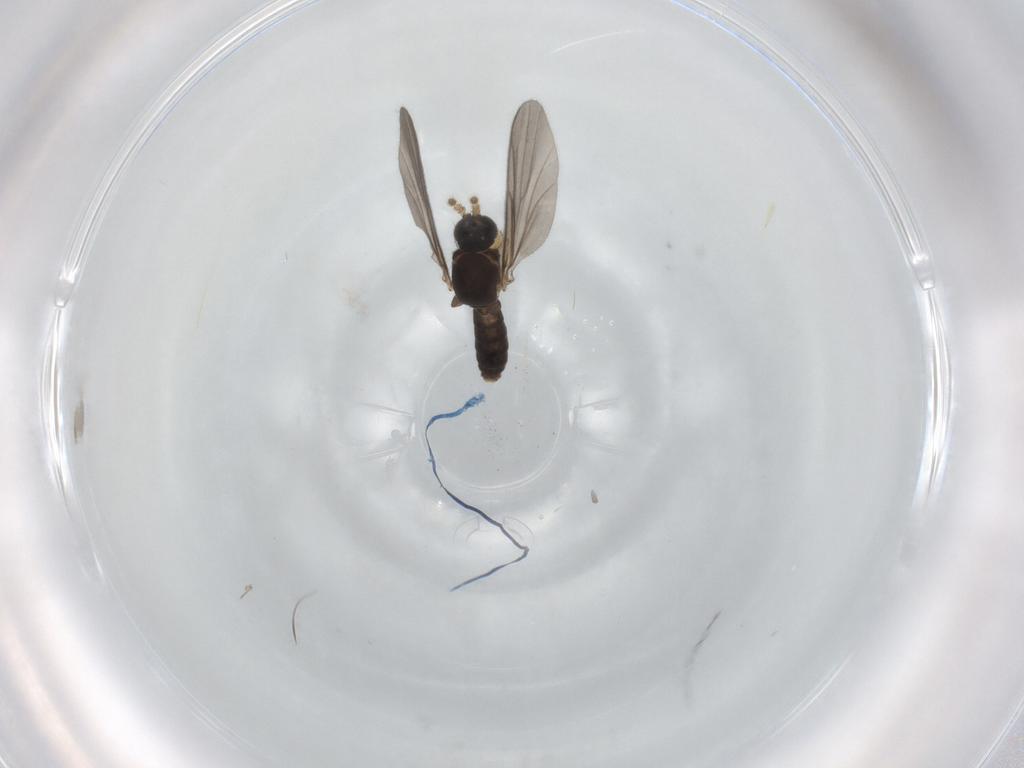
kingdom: Animalia
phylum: Arthropoda
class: Insecta
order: Diptera
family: Mycetophilidae
